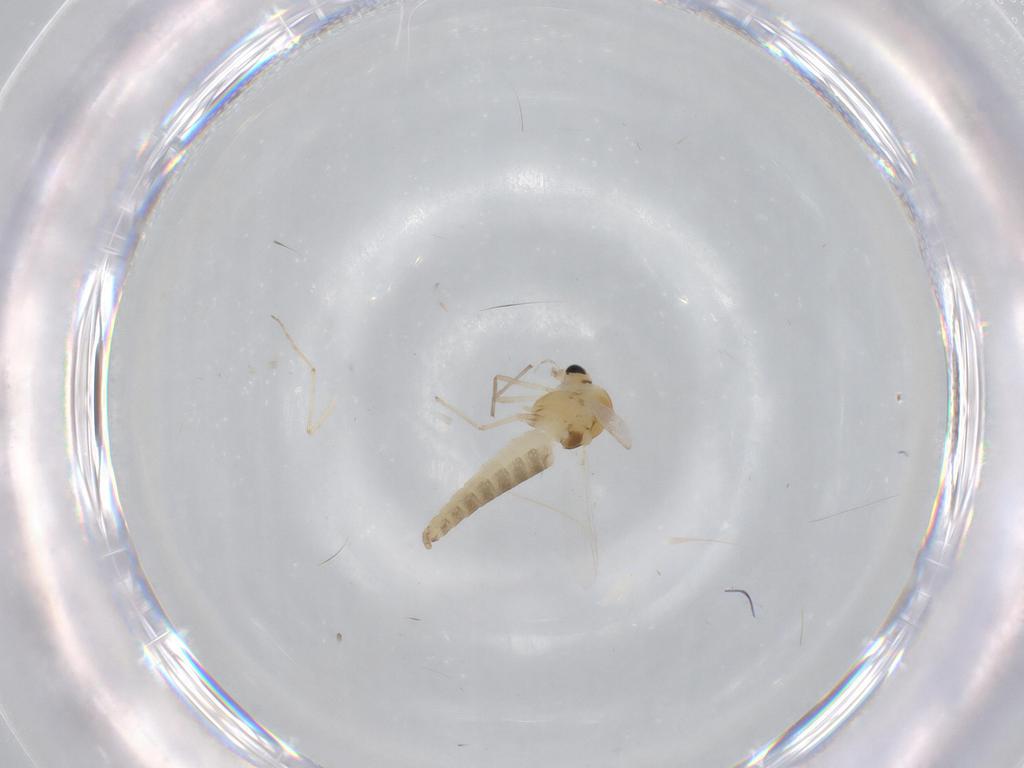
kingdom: Animalia
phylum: Arthropoda
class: Insecta
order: Diptera
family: Chironomidae
